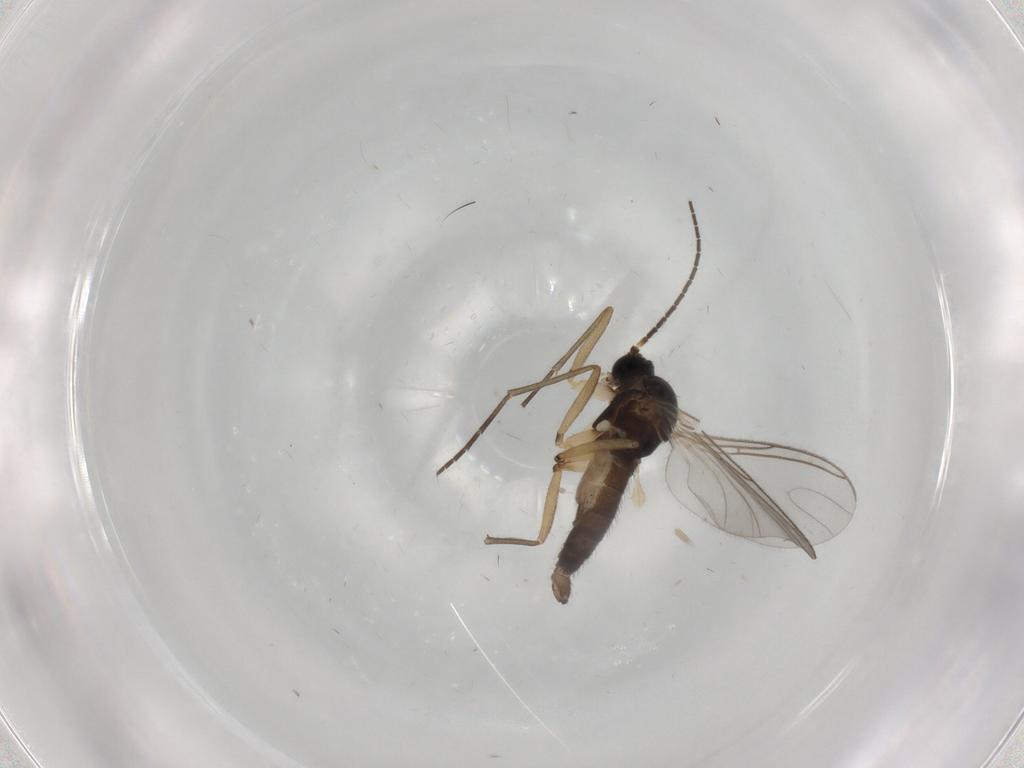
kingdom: Animalia
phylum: Arthropoda
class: Insecta
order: Diptera
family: Sciaridae
